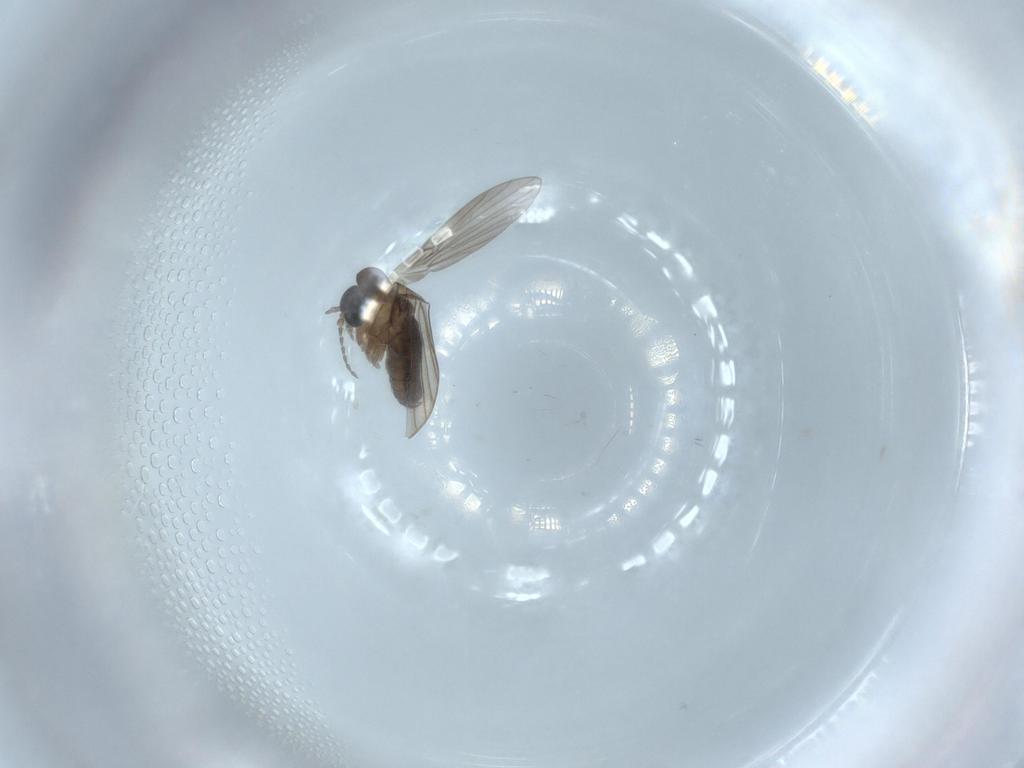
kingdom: Animalia
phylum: Arthropoda
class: Insecta
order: Diptera
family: Psychodidae
